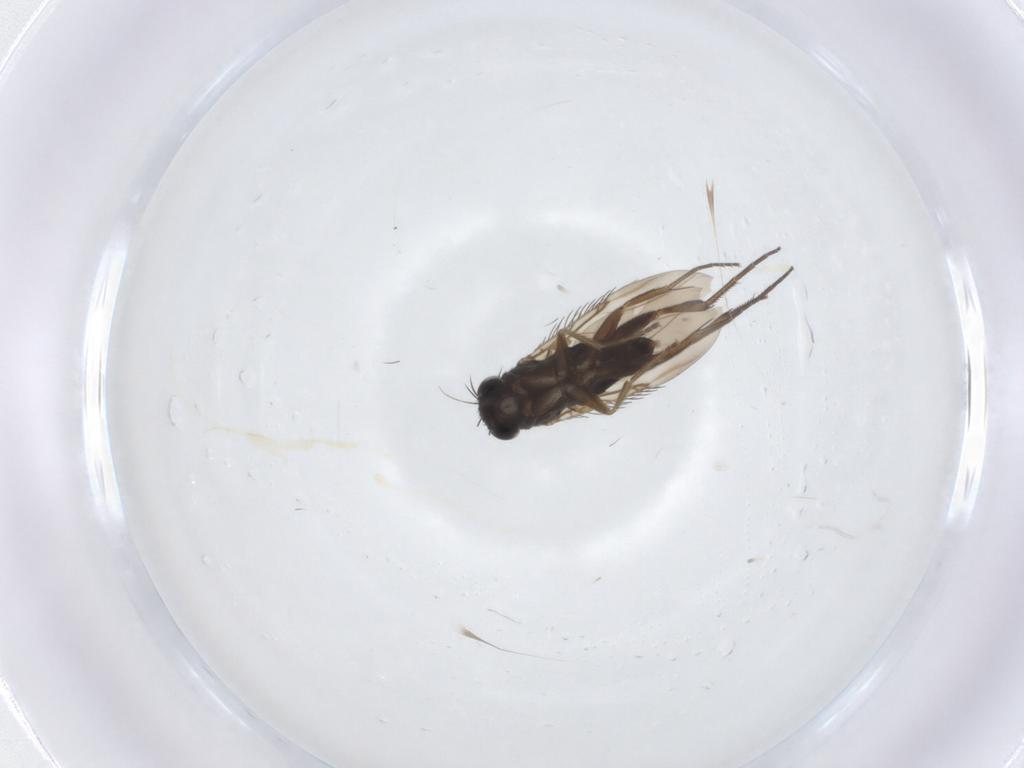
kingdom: Animalia
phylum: Arthropoda
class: Insecta
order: Diptera
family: Phoridae
